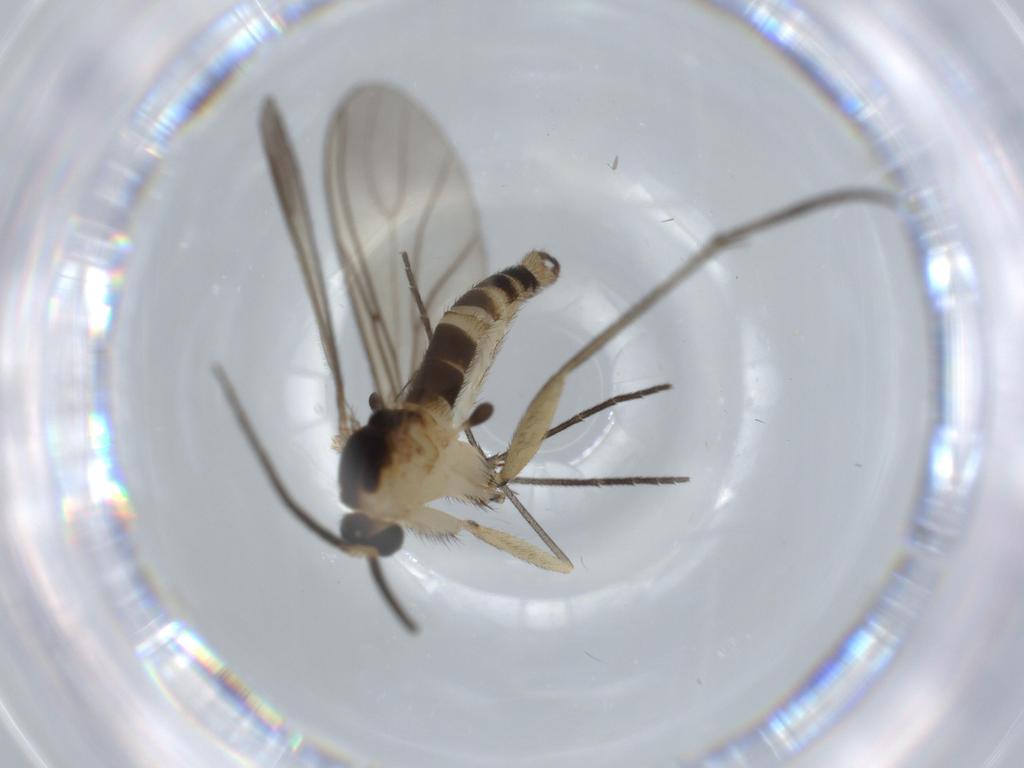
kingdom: Animalia
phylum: Arthropoda
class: Insecta
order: Diptera
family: Sciaridae
